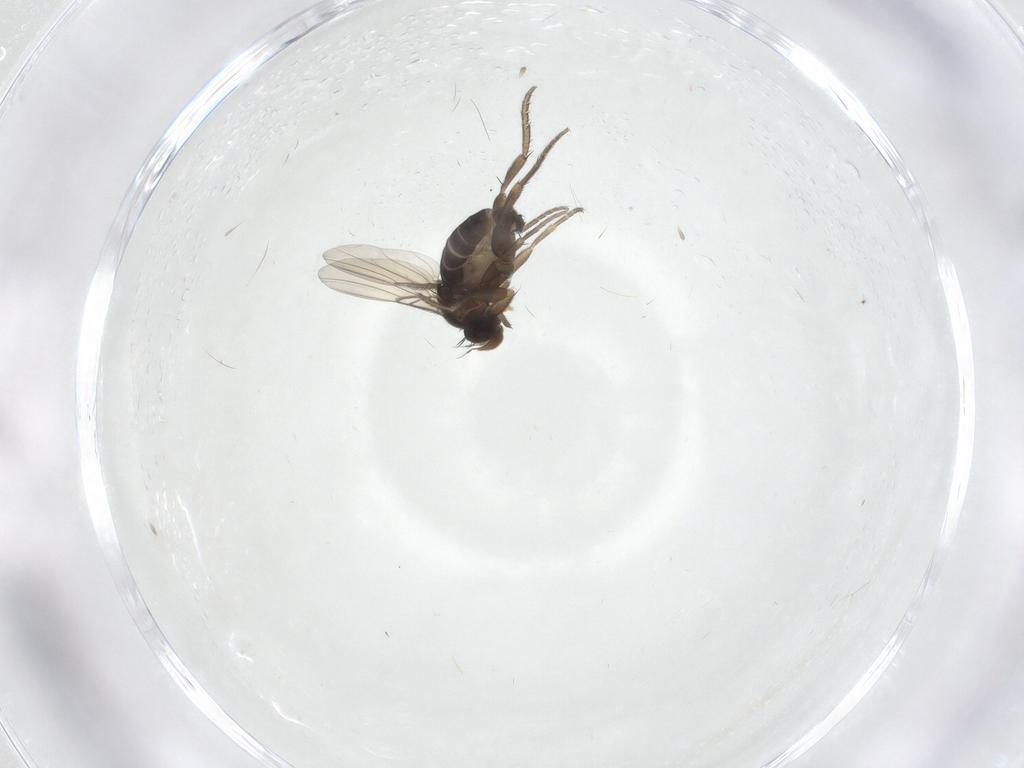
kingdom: Animalia
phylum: Arthropoda
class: Insecta
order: Diptera
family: Phoridae
